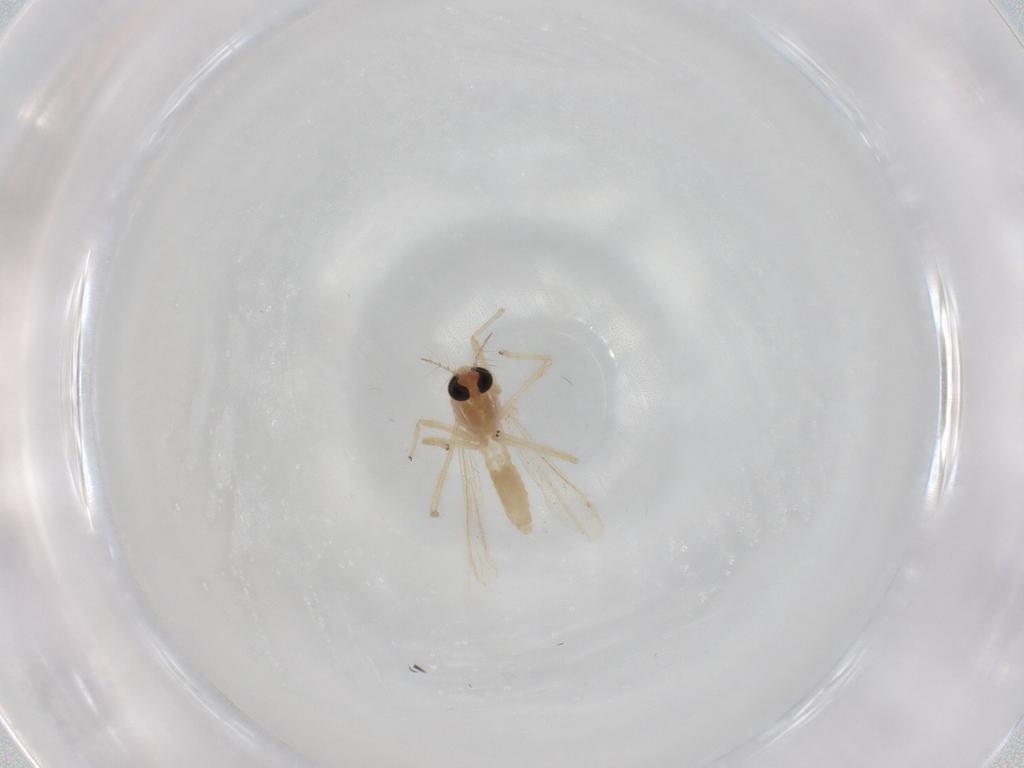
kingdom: Animalia
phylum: Arthropoda
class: Insecta
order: Diptera
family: Chironomidae
